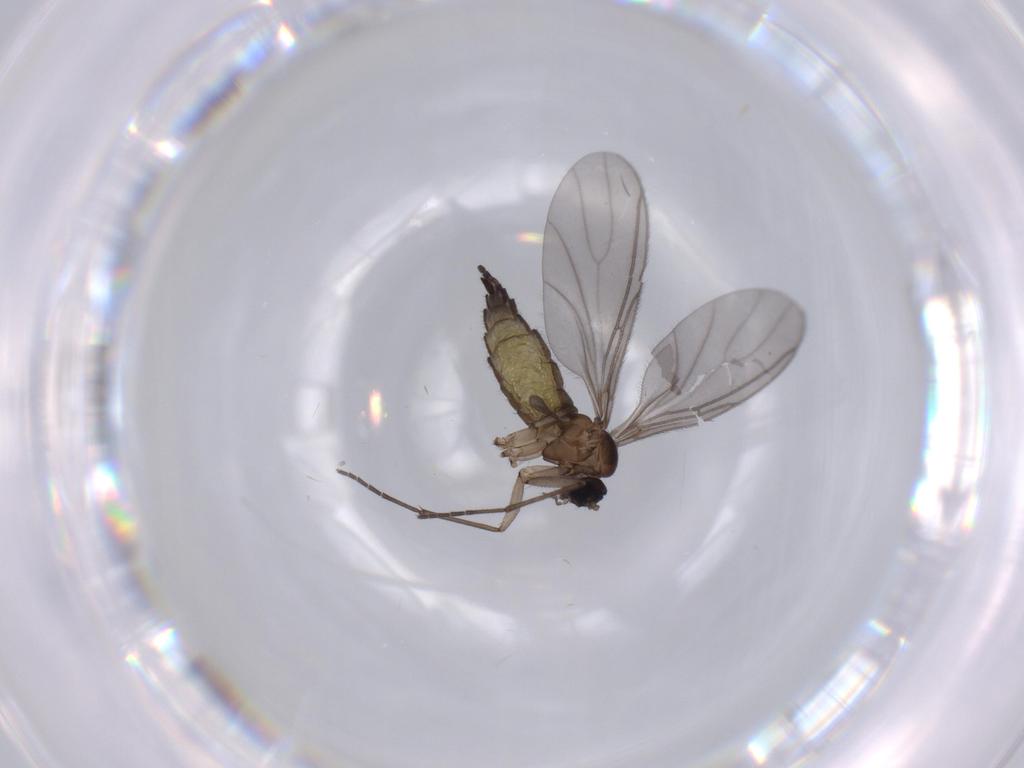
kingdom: Animalia
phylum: Arthropoda
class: Insecta
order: Diptera
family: Sciaridae
